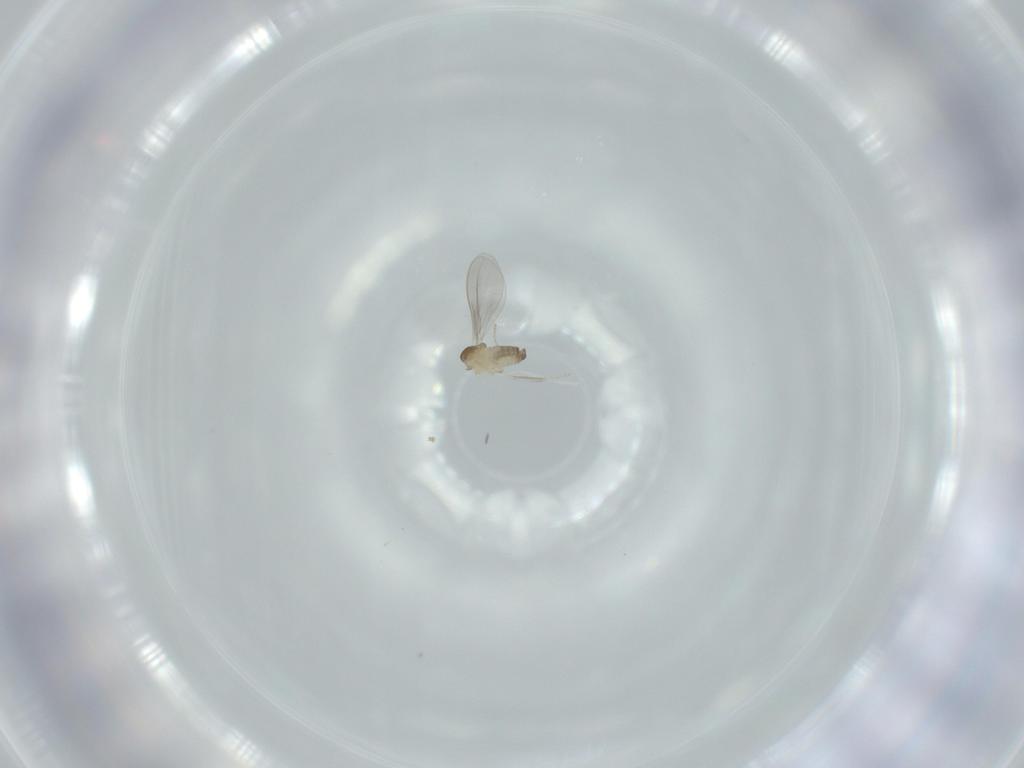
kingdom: Animalia
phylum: Arthropoda
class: Insecta
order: Diptera
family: Cecidomyiidae
